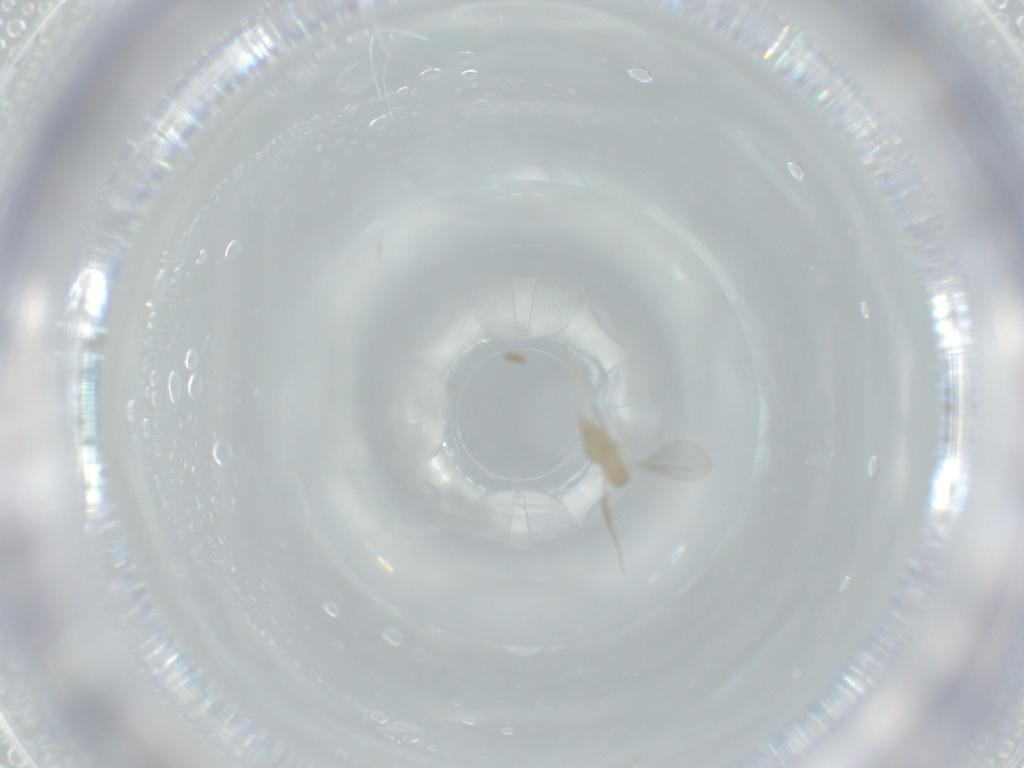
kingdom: Animalia
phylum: Arthropoda
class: Insecta
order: Diptera
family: Cecidomyiidae
